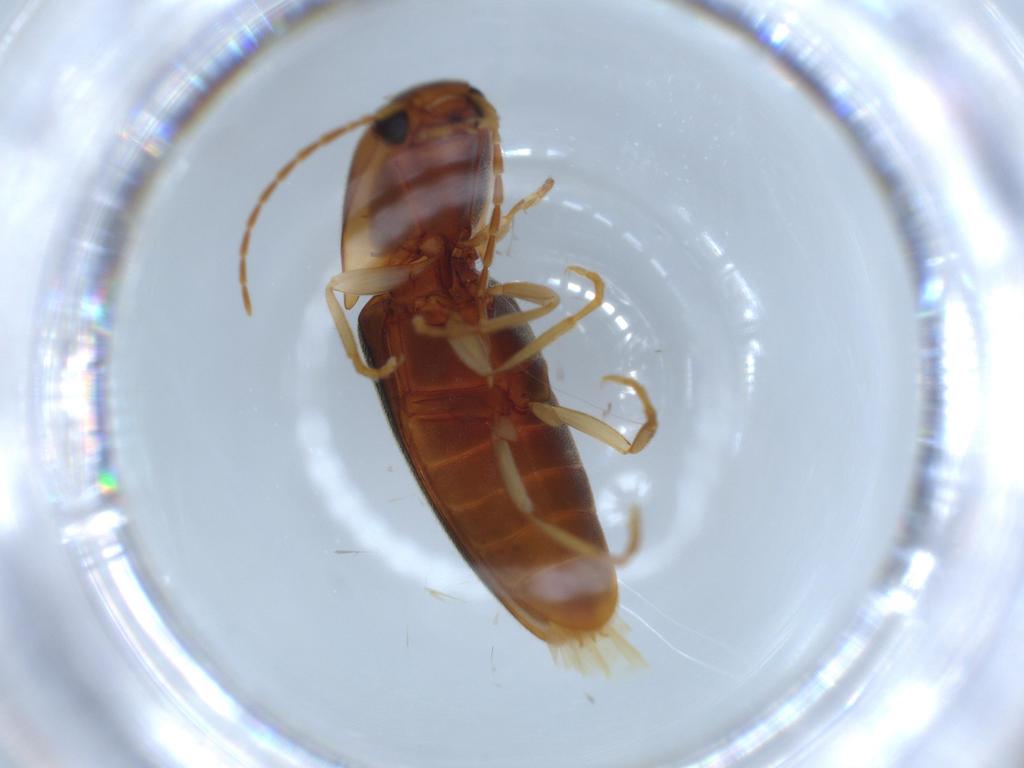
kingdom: Animalia
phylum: Arthropoda
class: Insecta
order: Coleoptera
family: Elateridae
